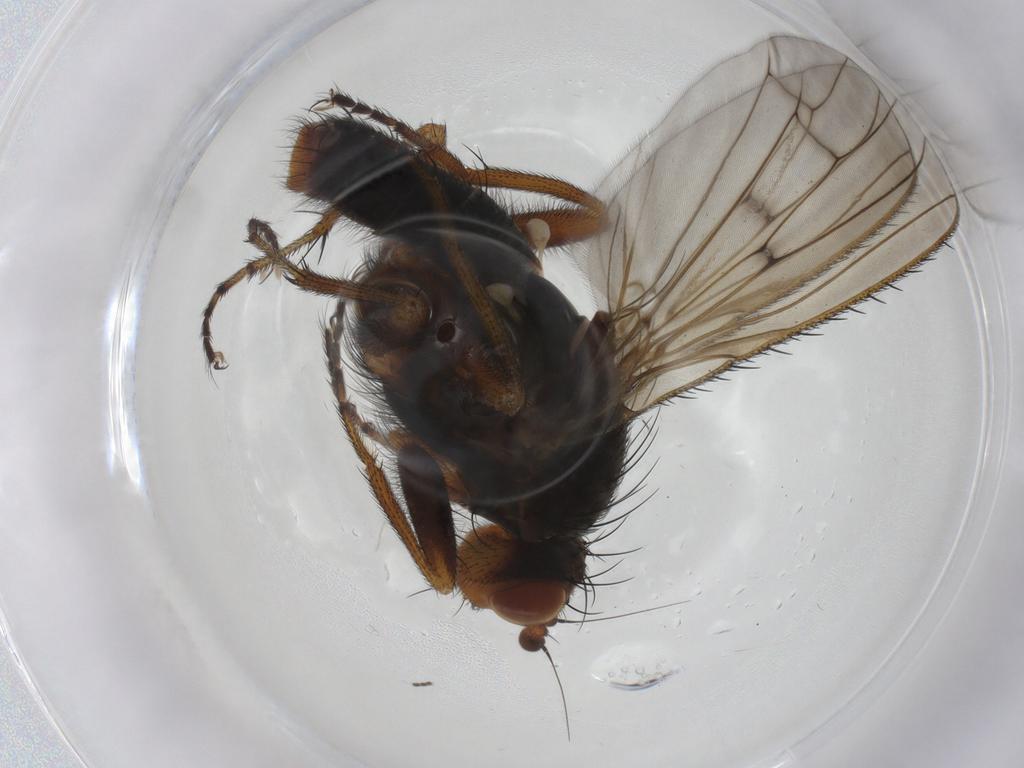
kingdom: Animalia
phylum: Arthropoda
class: Insecta
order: Diptera
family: Heleomyzidae
